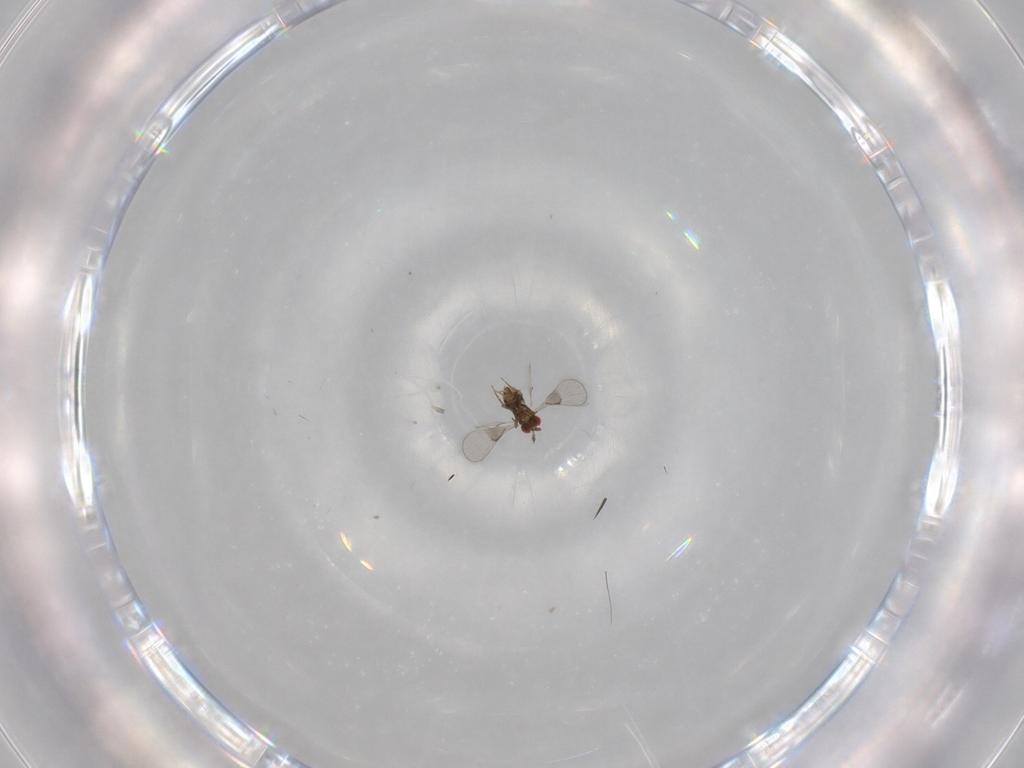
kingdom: Animalia
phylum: Arthropoda
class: Insecta
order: Hymenoptera
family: Trichogrammatidae
